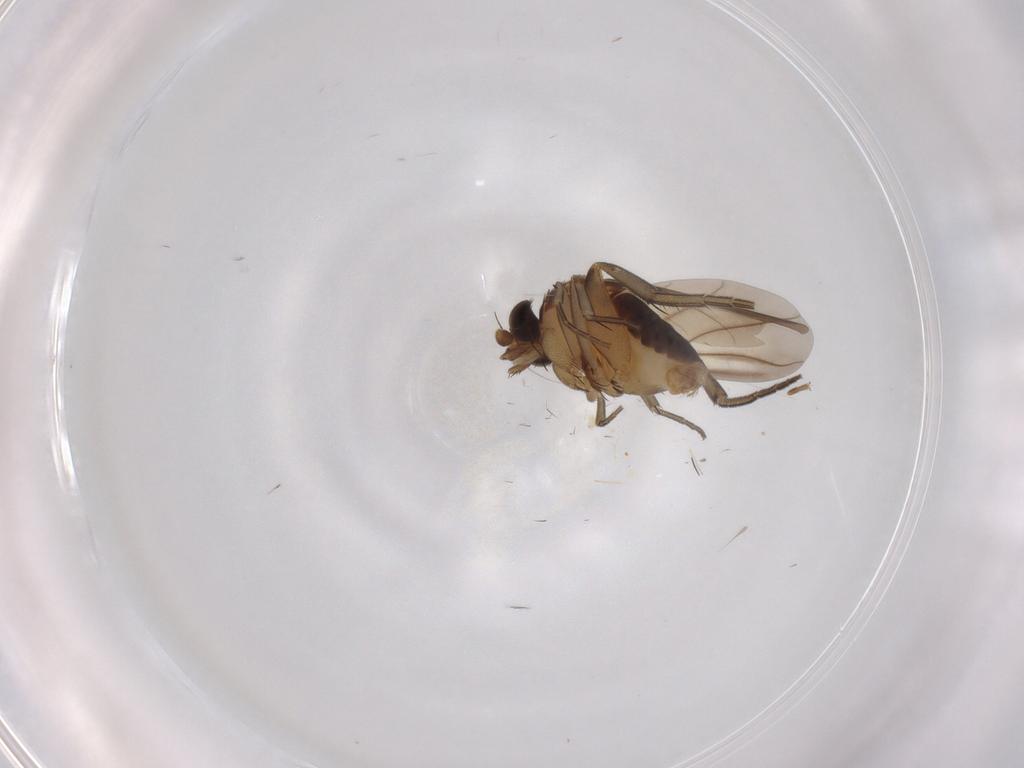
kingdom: Animalia
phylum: Arthropoda
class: Insecta
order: Diptera
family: Phoridae
